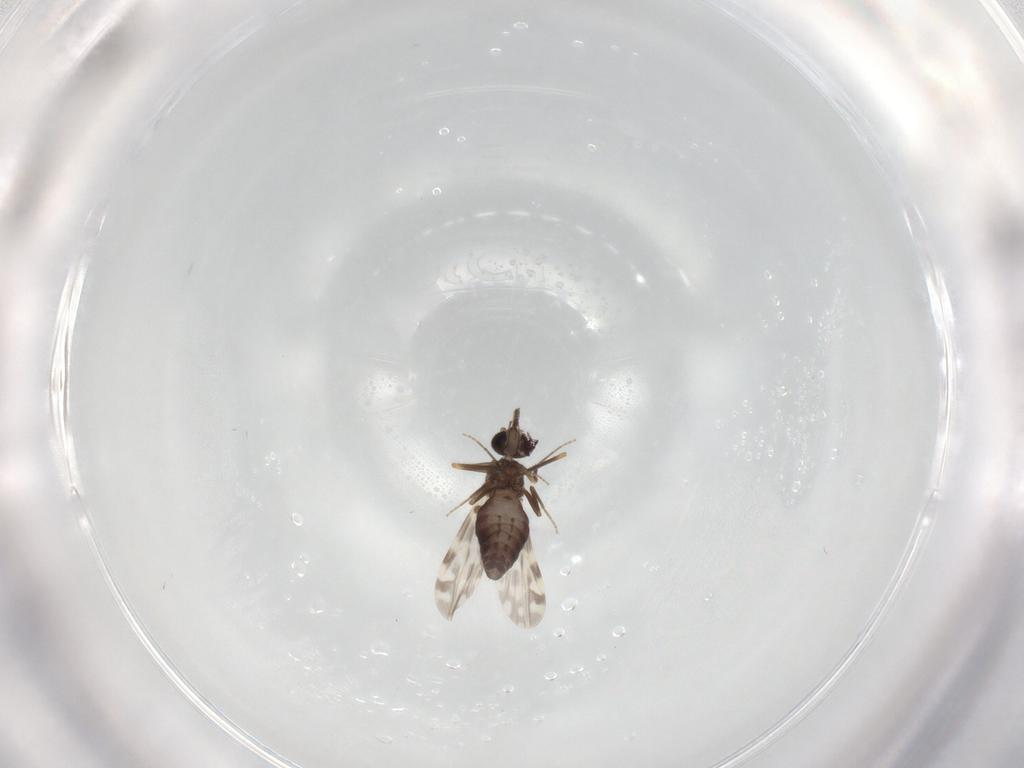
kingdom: Animalia
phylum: Arthropoda
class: Insecta
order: Diptera
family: Ceratopogonidae
